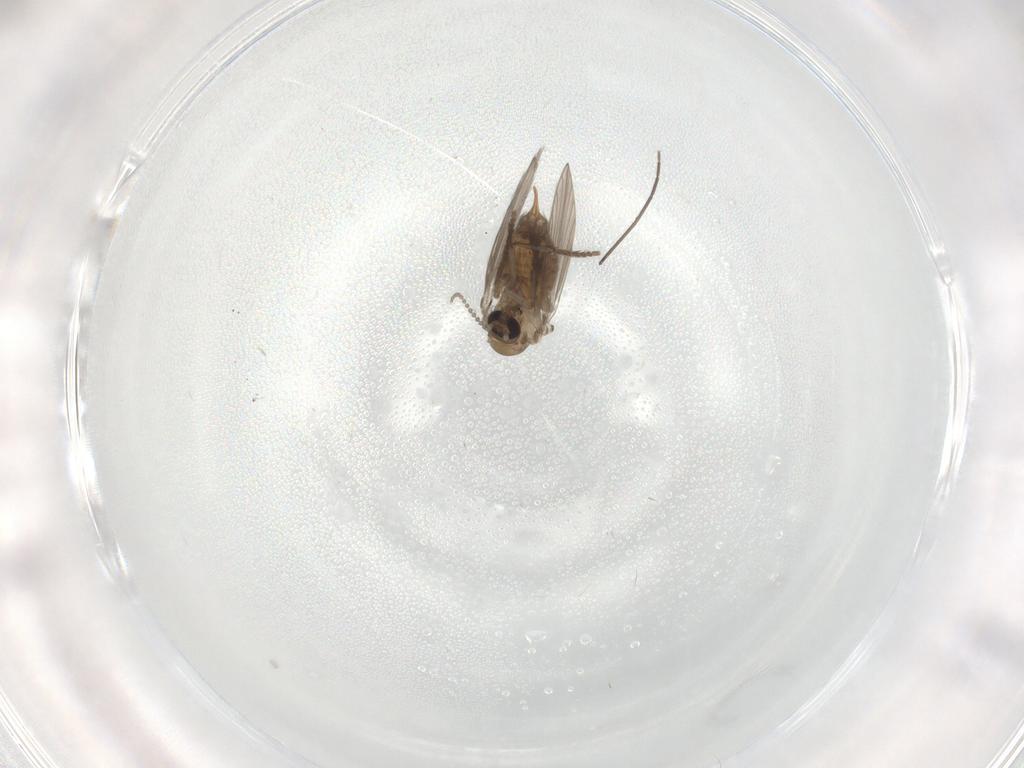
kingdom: Animalia
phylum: Arthropoda
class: Insecta
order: Diptera
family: Chironomidae
